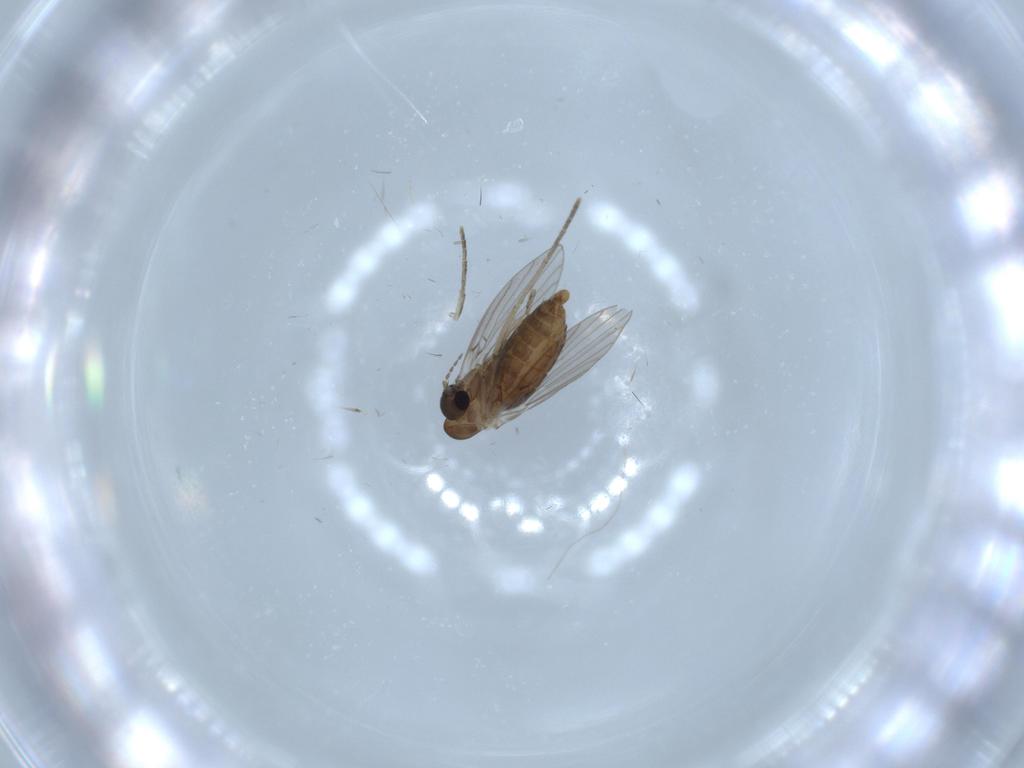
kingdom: Animalia
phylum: Arthropoda
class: Insecta
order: Diptera
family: Psychodidae
